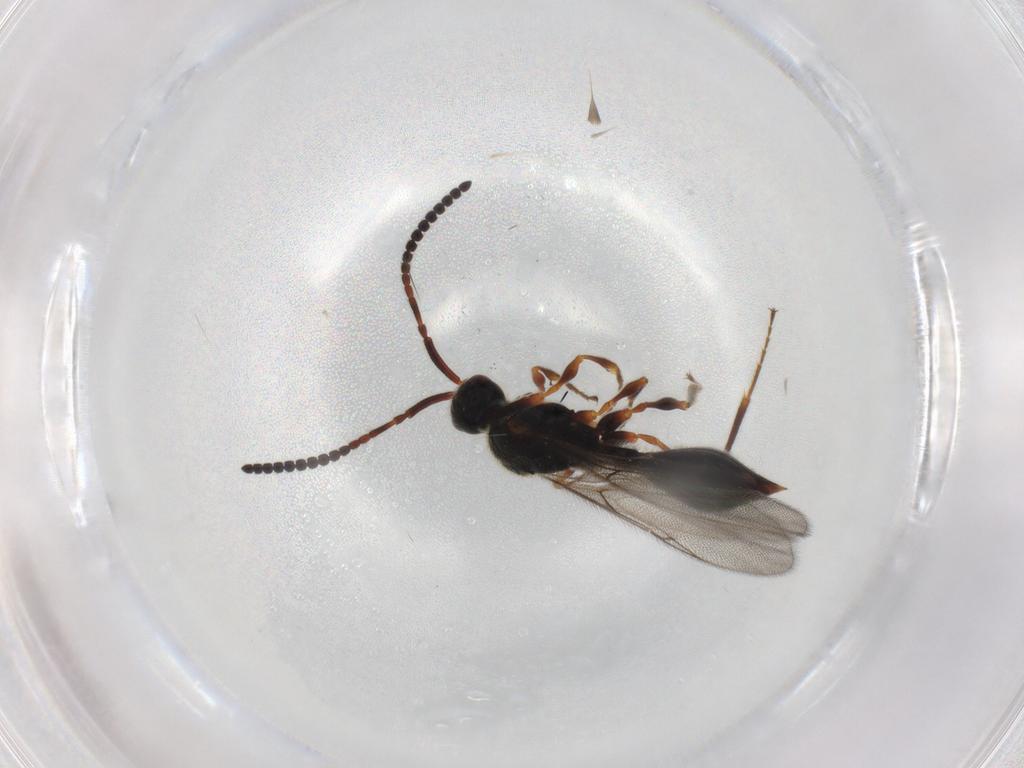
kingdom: Animalia
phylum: Arthropoda
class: Insecta
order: Hymenoptera
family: Diapriidae
